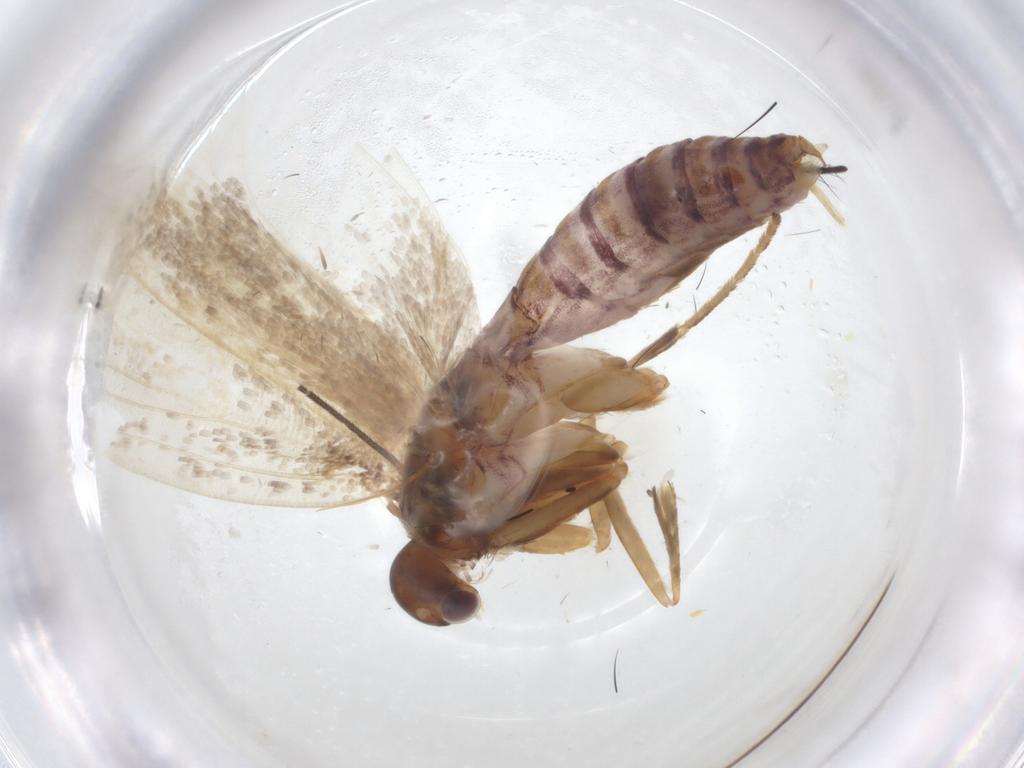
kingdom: Animalia
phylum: Arthropoda
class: Insecta
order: Lepidoptera
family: Oecophoridae
